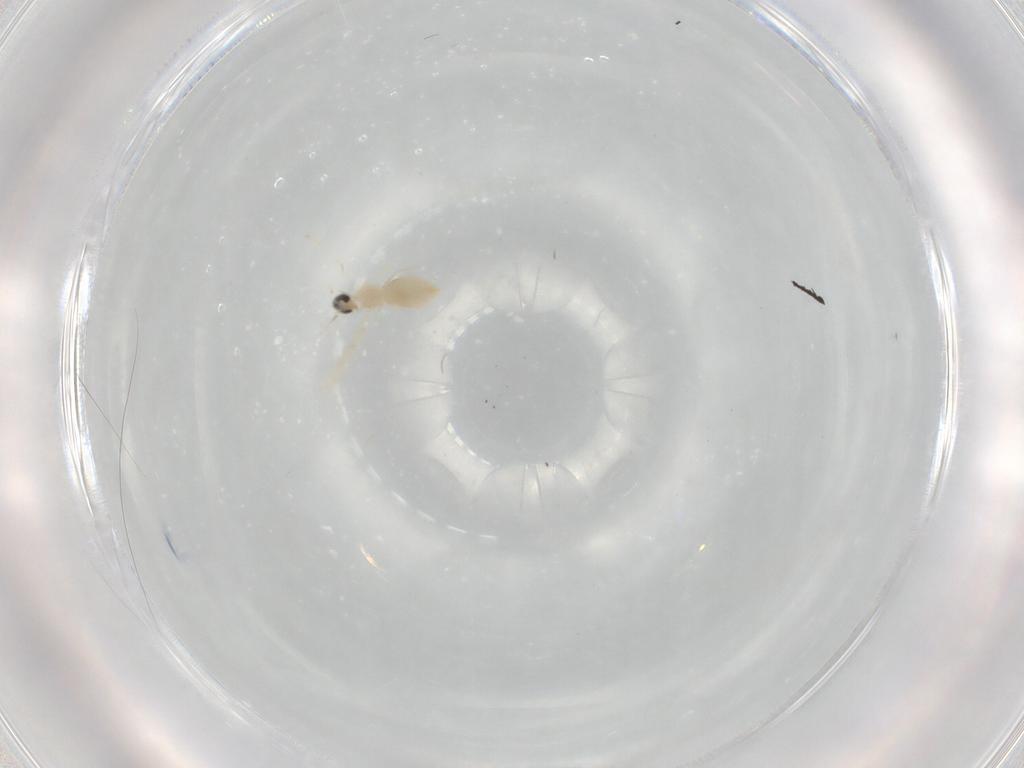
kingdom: Animalia
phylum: Arthropoda
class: Insecta
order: Diptera
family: Cecidomyiidae
